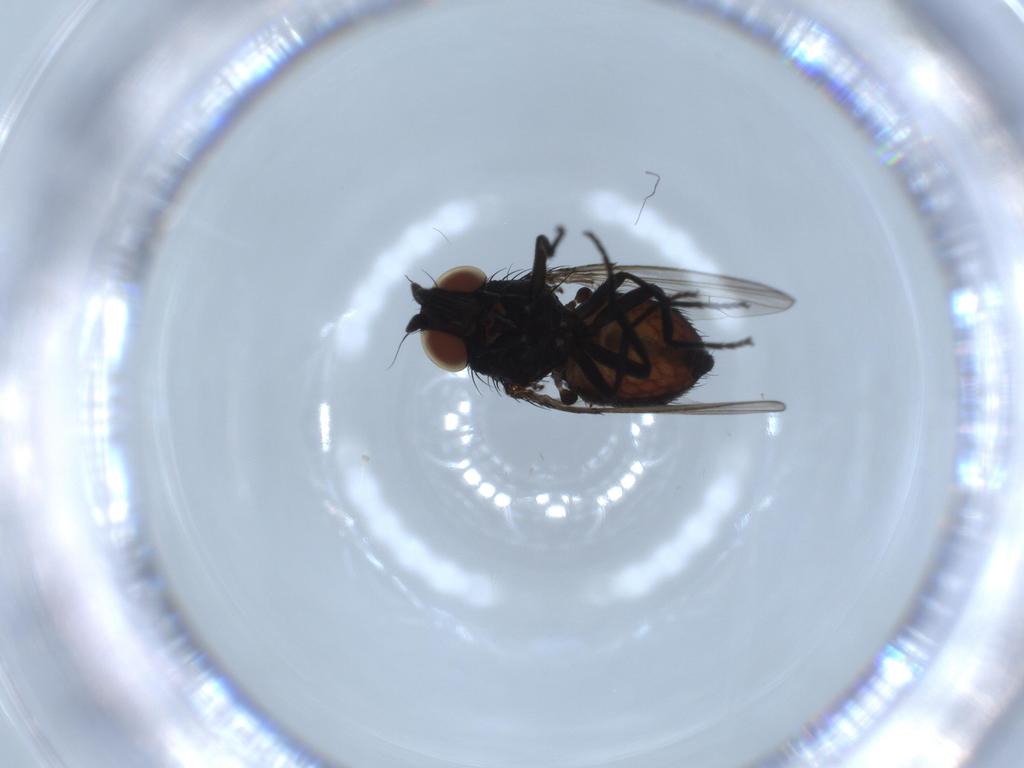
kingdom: Animalia
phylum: Arthropoda
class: Insecta
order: Diptera
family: Milichiidae
